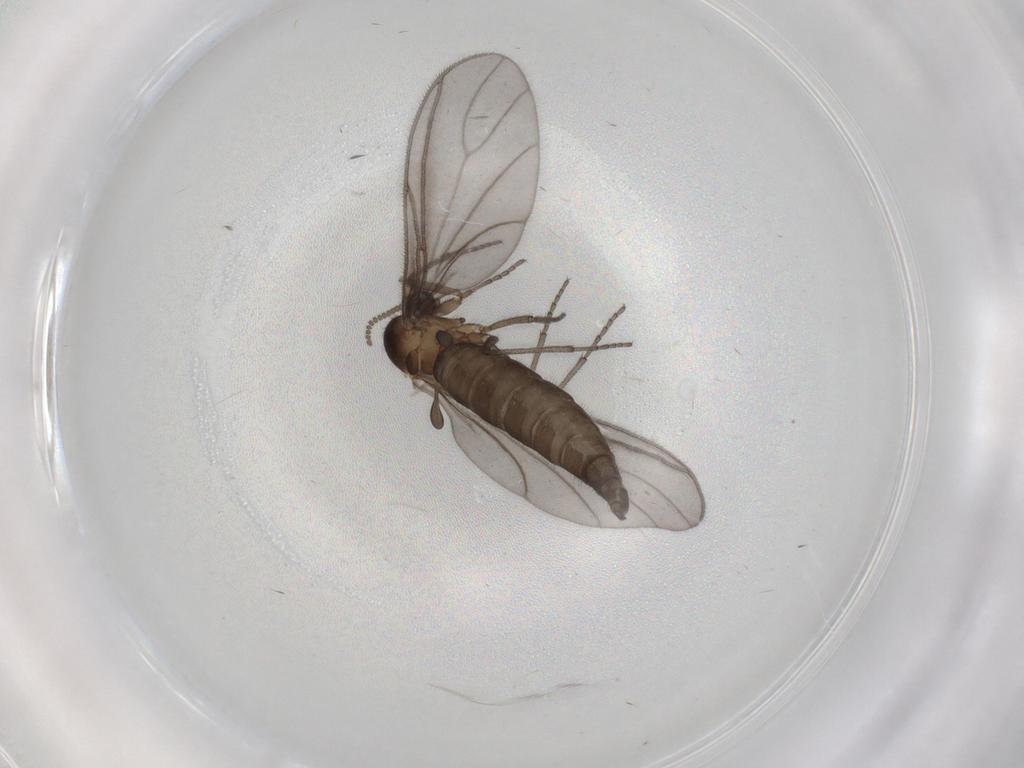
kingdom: Animalia
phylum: Arthropoda
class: Insecta
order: Diptera
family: Sciaridae
